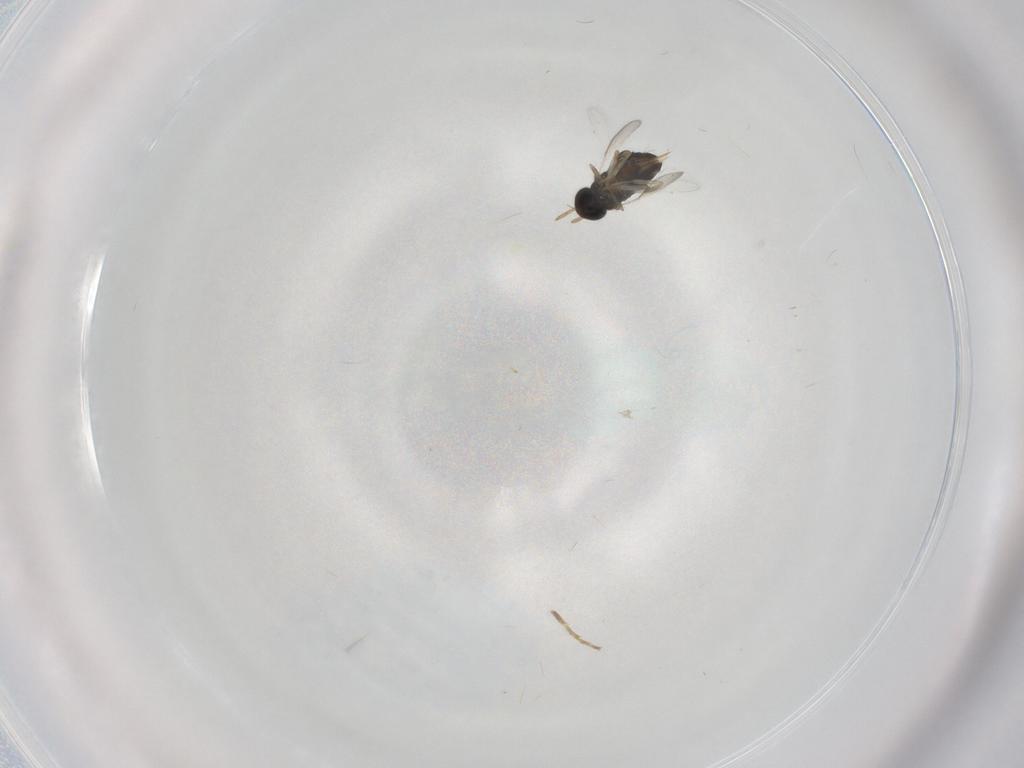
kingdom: Animalia
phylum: Arthropoda
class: Insecta
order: Hymenoptera
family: Aphelinidae
